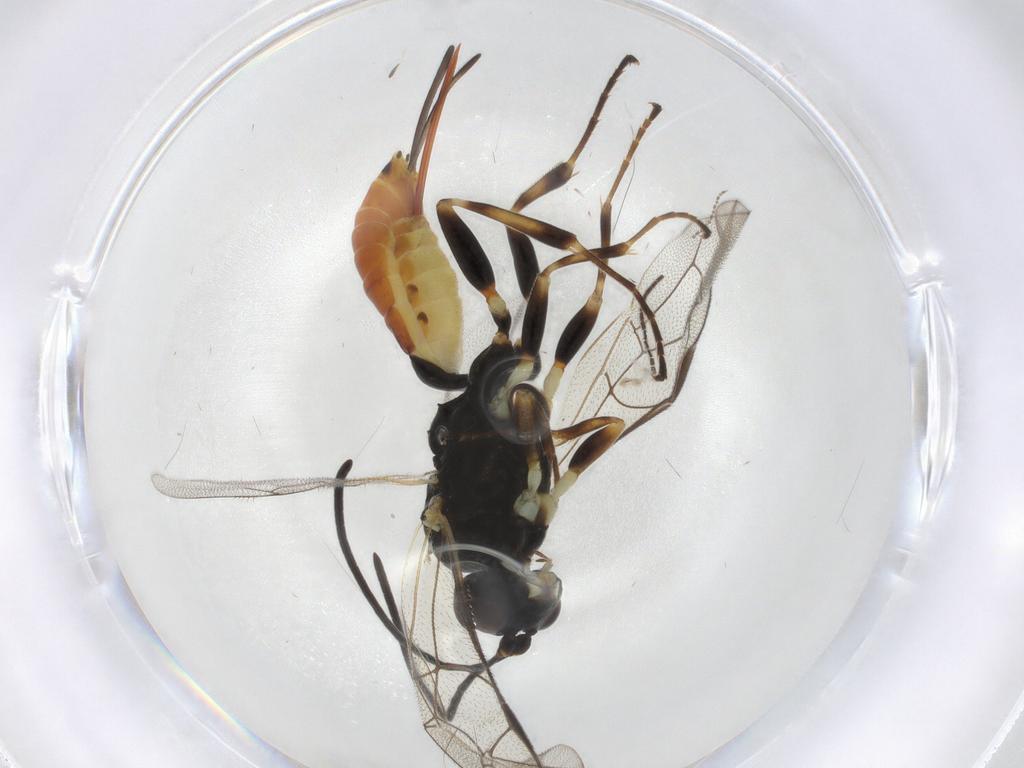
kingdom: Animalia
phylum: Arthropoda
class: Insecta
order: Hymenoptera
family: Ichneumonidae
